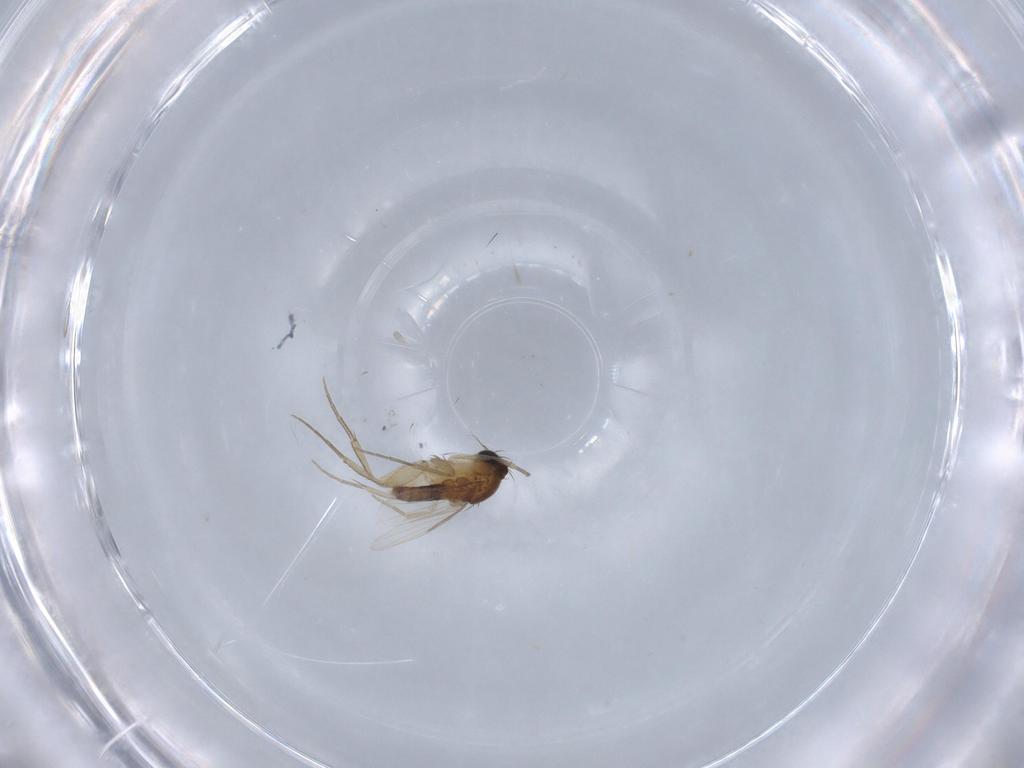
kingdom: Animalia
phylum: Arthropoda
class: Insecta
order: Diptera
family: Phoridae
